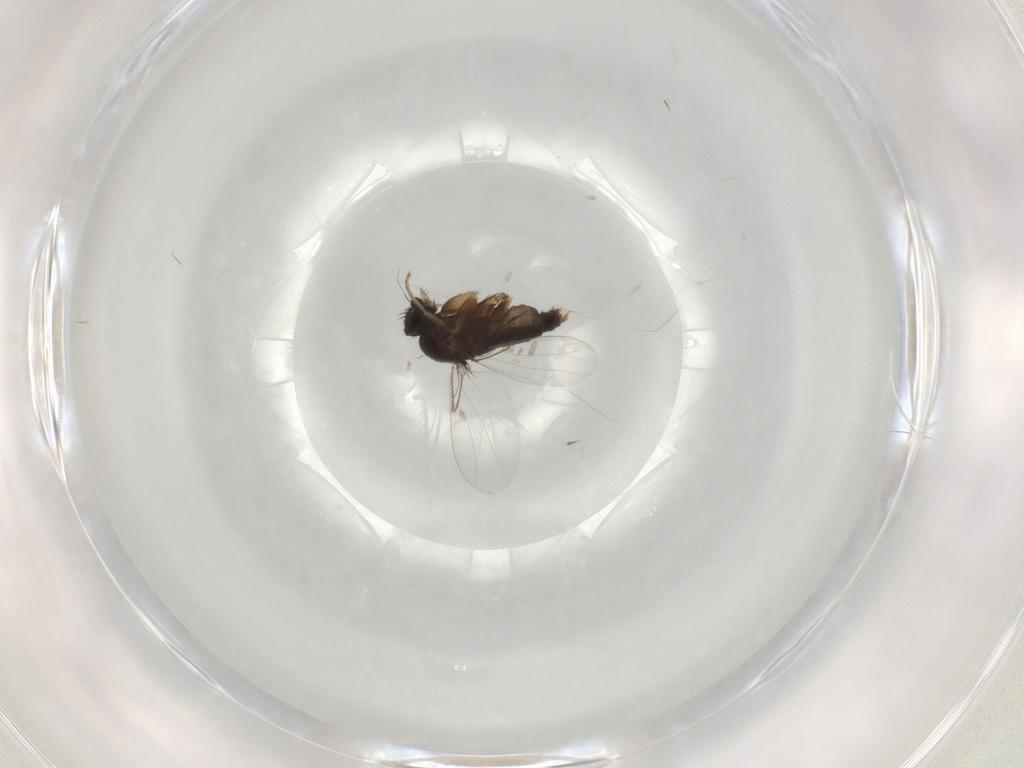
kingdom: Animalia
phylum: Arthropoda
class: Insecta
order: Diptera
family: Phoridae
